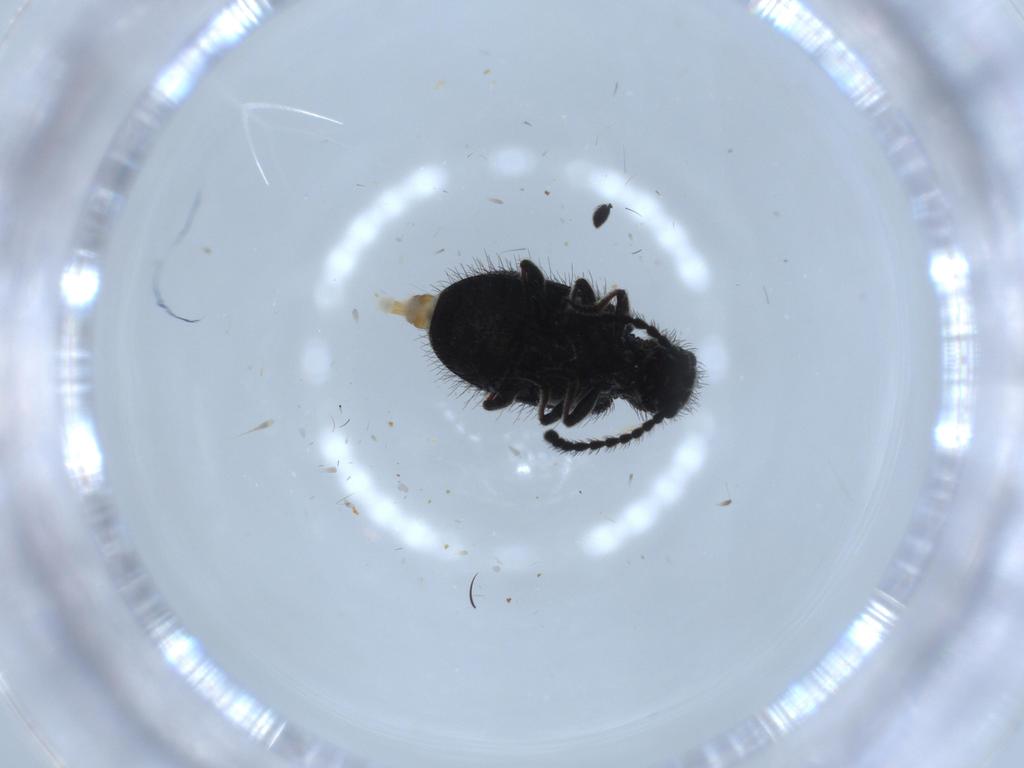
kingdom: Animalia
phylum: Arthropoda
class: Insecta
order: Coleoptera
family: Ptinidae
